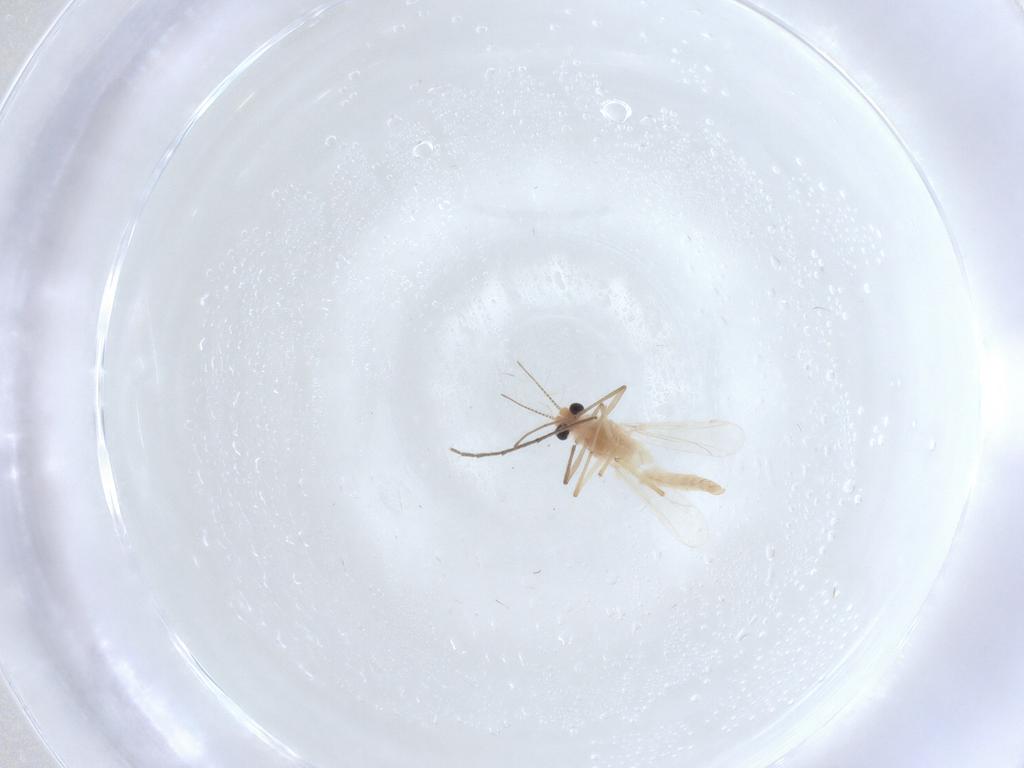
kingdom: Animalia
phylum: Arthropoda
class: Insecta
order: Diptera
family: Chironomidae
